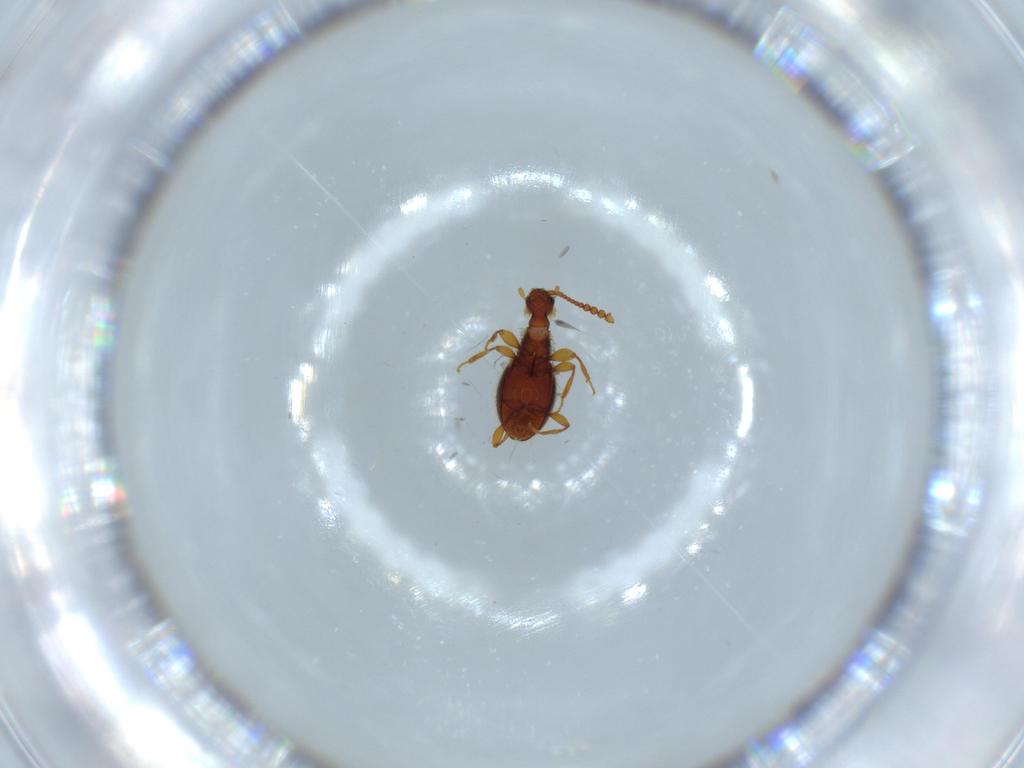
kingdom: Animalia
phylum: Arthropoda
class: Insecta
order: Coleoptera
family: Staphylinidae
